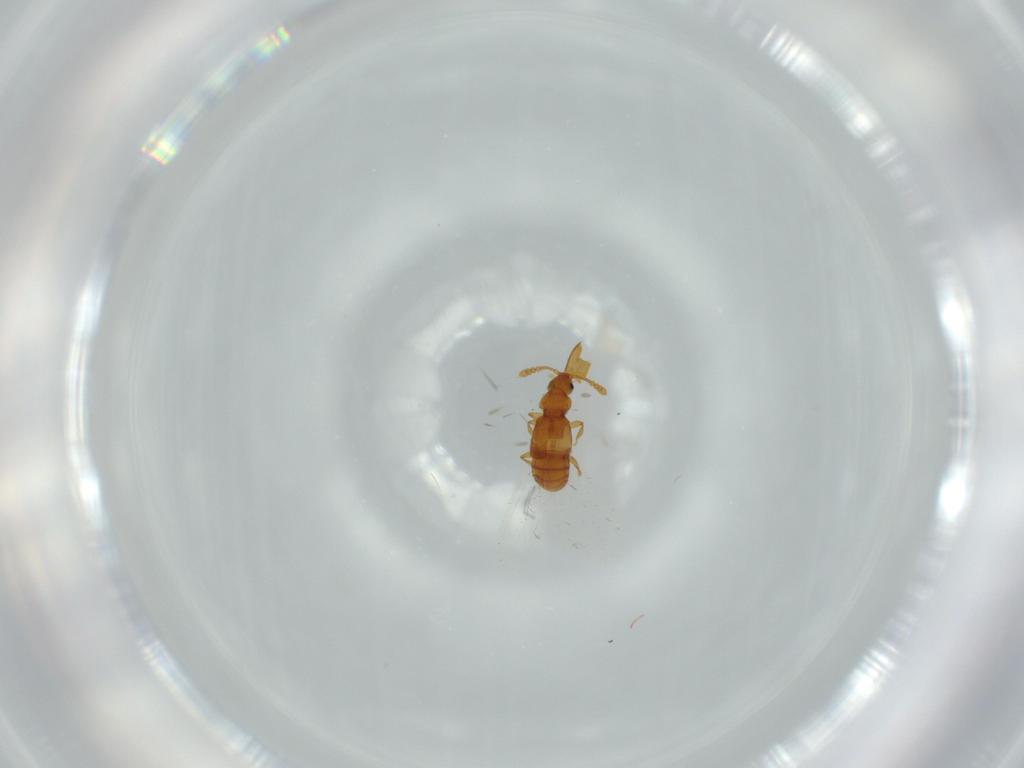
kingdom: Animalia
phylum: Arthropoda
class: Insecta
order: Coleoptera
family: Staphylinidae
